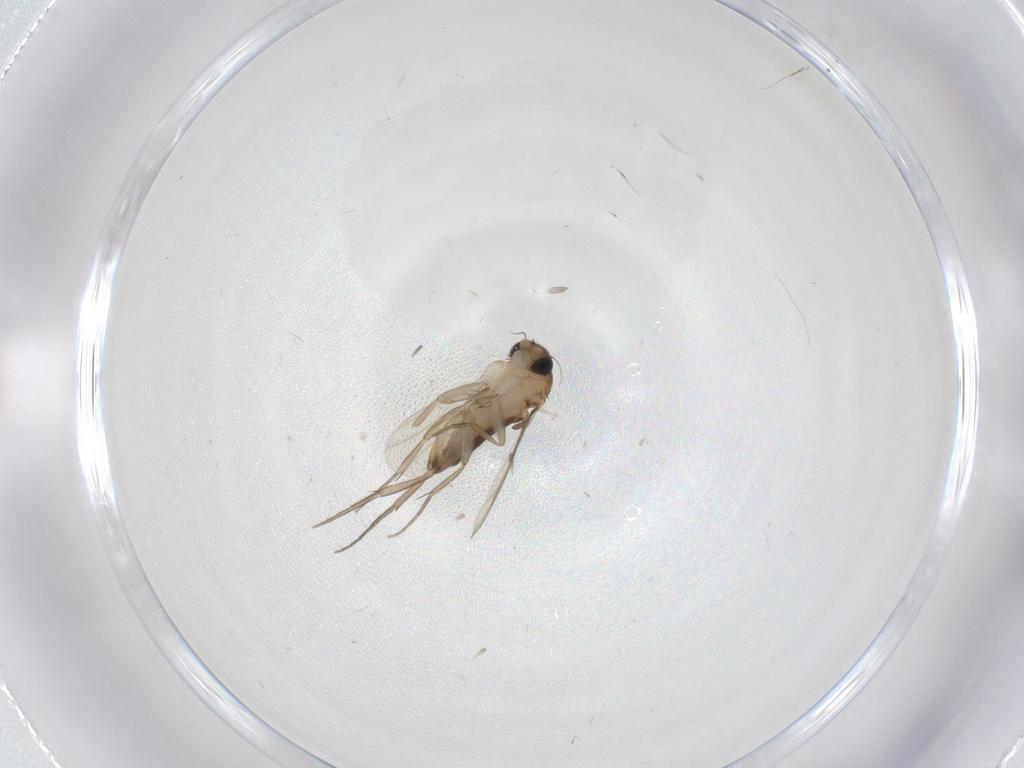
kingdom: Animalia
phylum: Arthropoda
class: Insecta
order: Diptera
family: Phoridae
